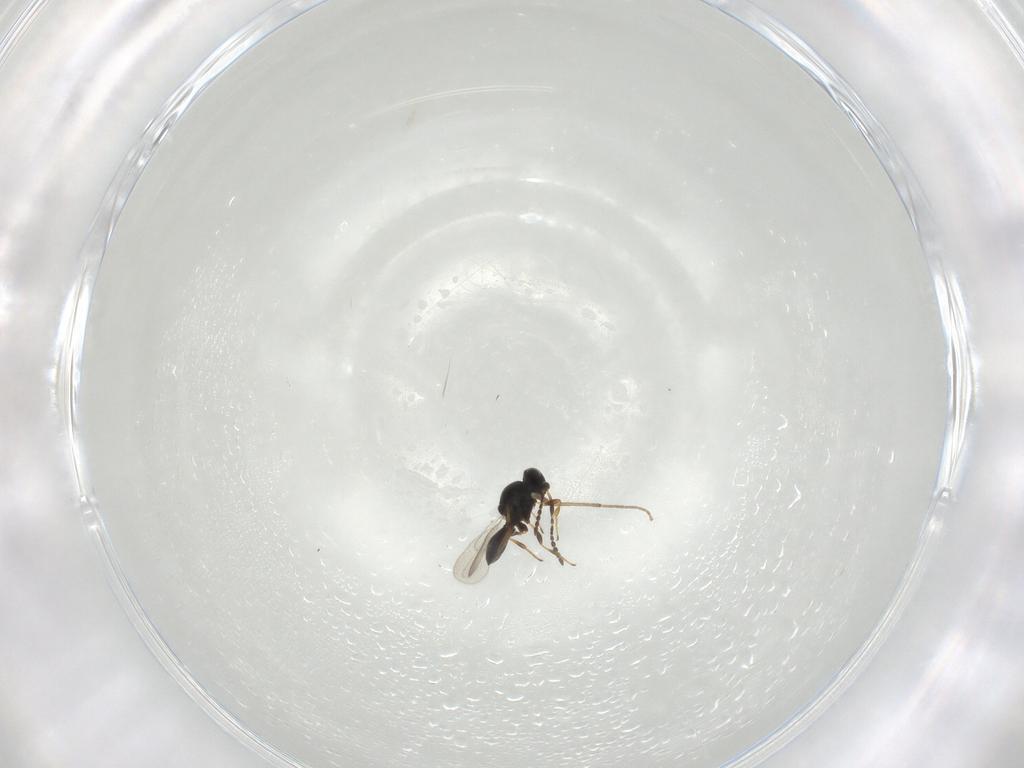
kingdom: Animalia
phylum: Arthropoda
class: Insecta
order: Hymenoptera
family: Platygastridae
